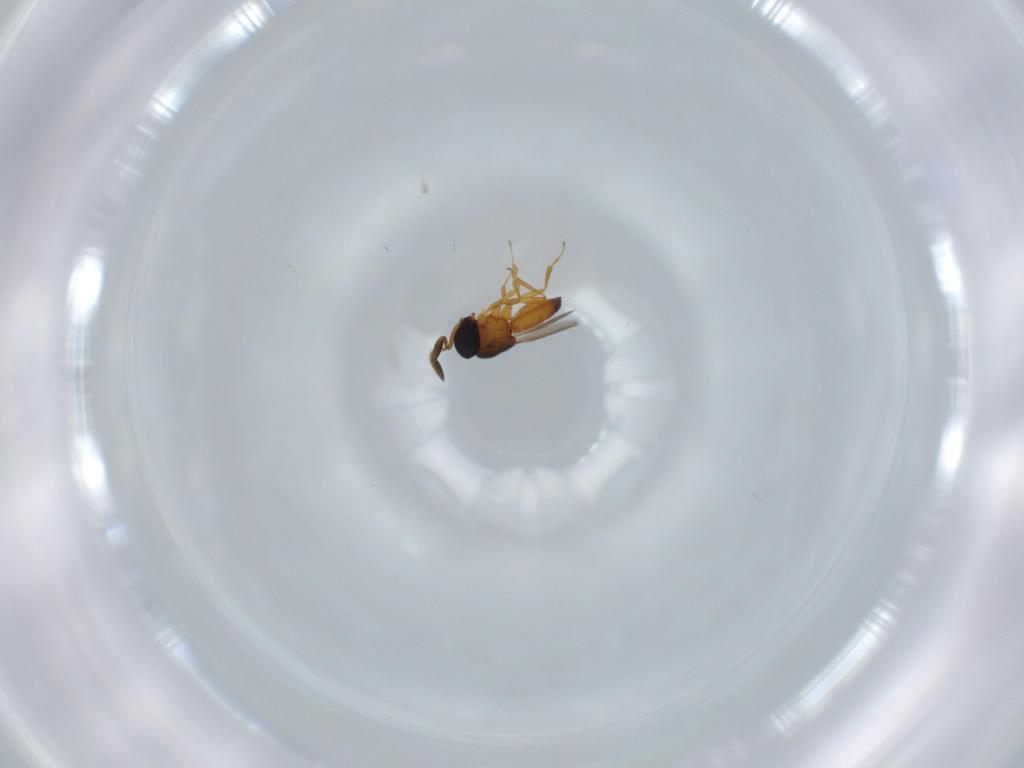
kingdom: Animalia
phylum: Arthropoda
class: Insecta
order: Hymenoptera
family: Scelionidae
